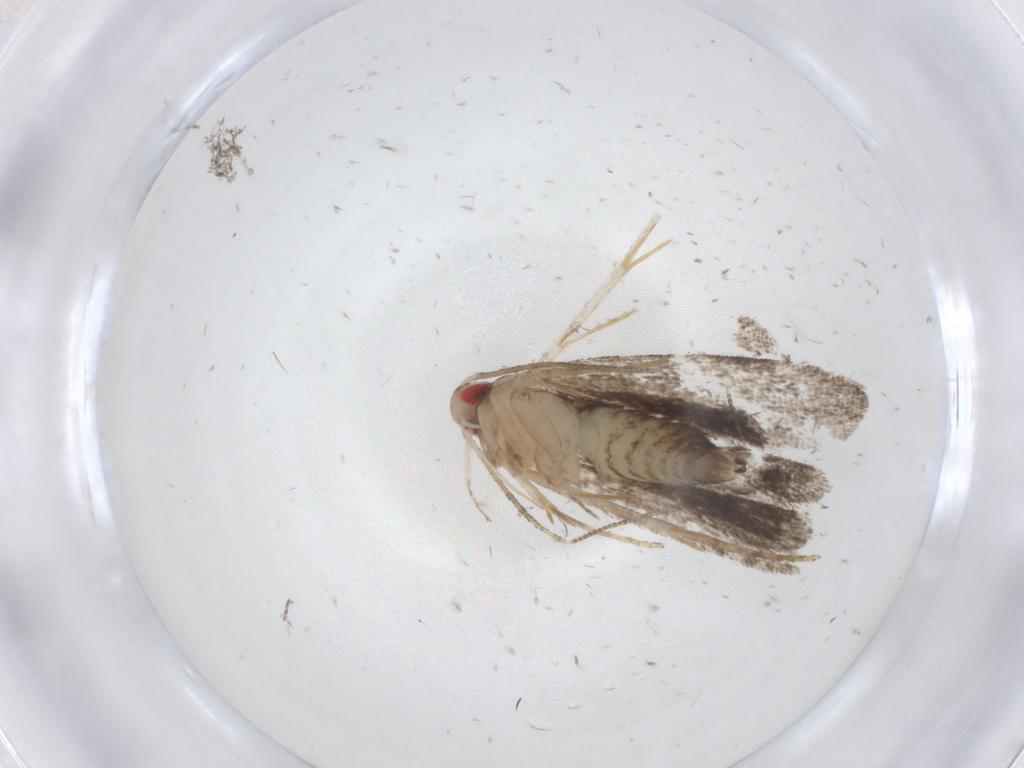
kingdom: Animalia
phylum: Arthropoda
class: Insecta
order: Lepidoptera
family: Gelechiidae
